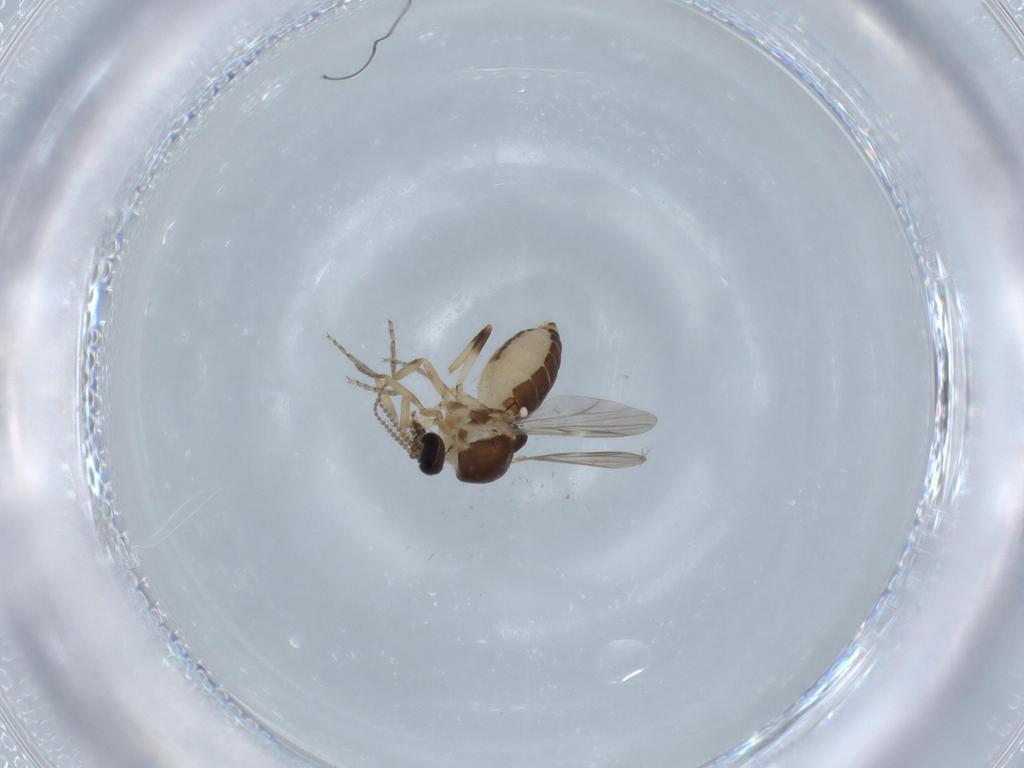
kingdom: Animalia
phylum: Arthropoda
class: Insecta
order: Diptera
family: Ceratopogonidae
